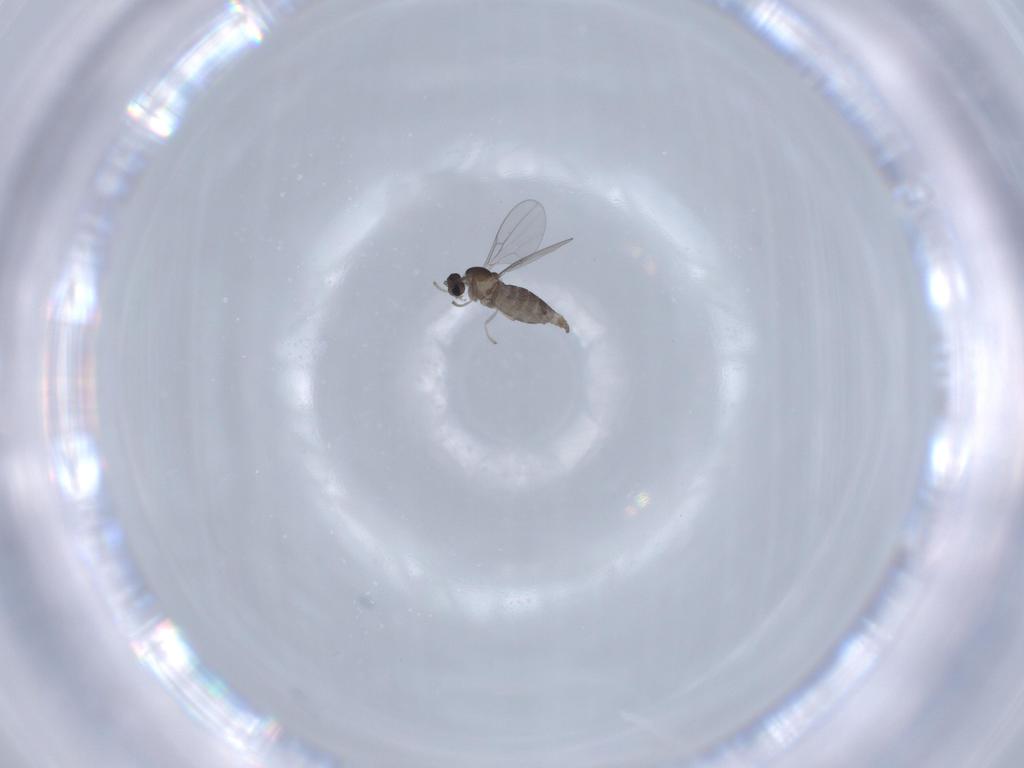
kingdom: Animalia
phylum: Arthropoda
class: Insecta
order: Diptera
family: Cecidomyiidae
